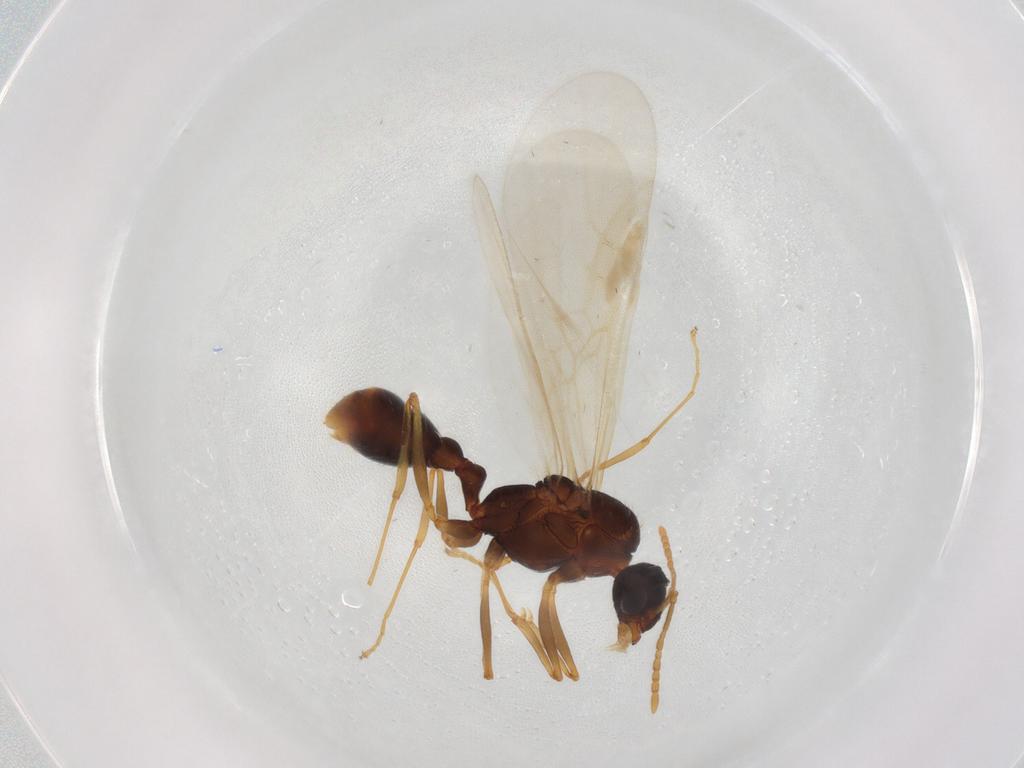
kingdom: Animalia
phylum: Arthropoda
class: Insecta
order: Hymenoptera
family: Formicidae
